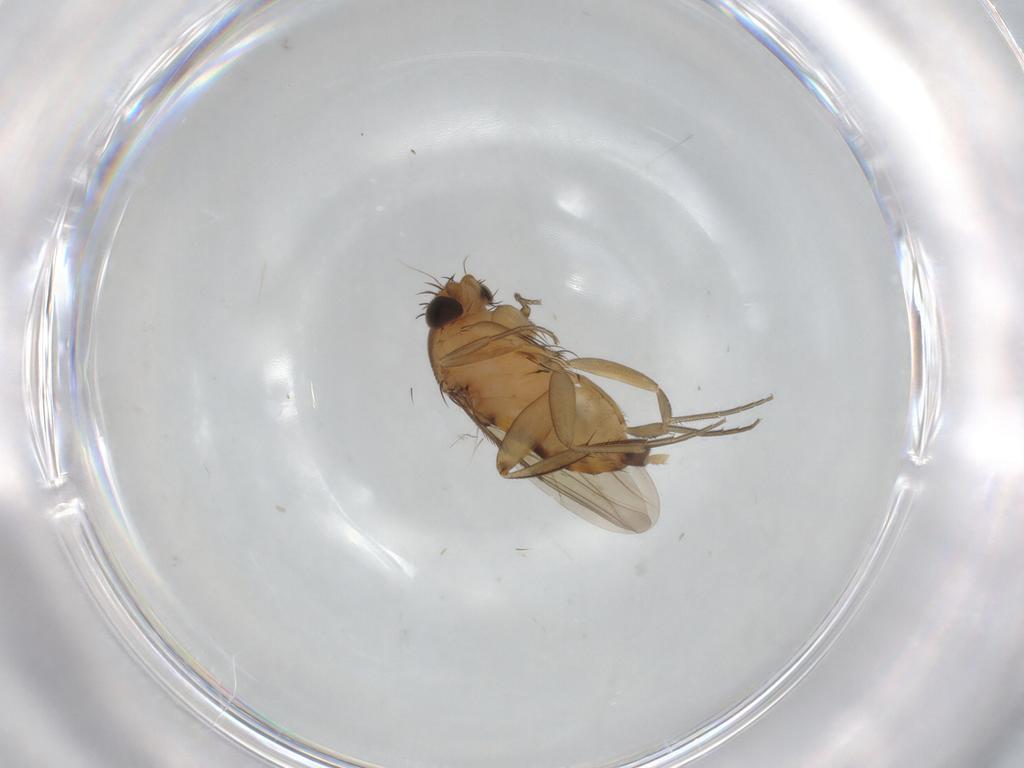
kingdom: Animalia
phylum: Arthropoda
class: Insecta
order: Diptera
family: Phoridae
